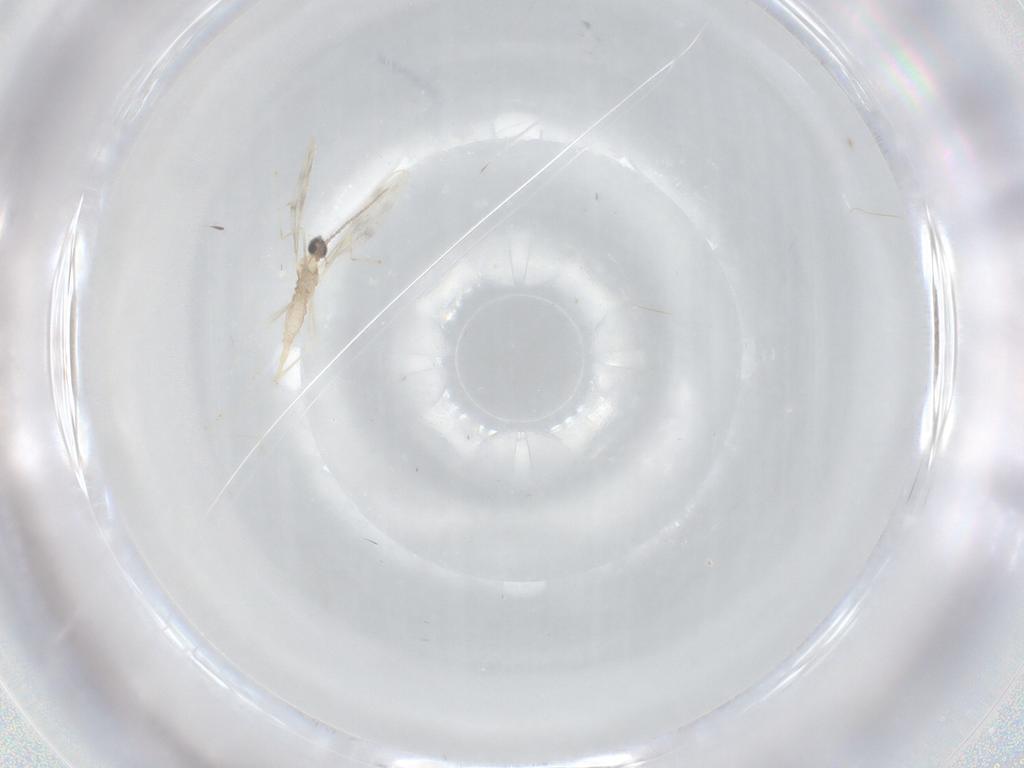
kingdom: Animalia
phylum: Arthropoda
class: Insecta
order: Diptera
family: Cecidomyiidae
